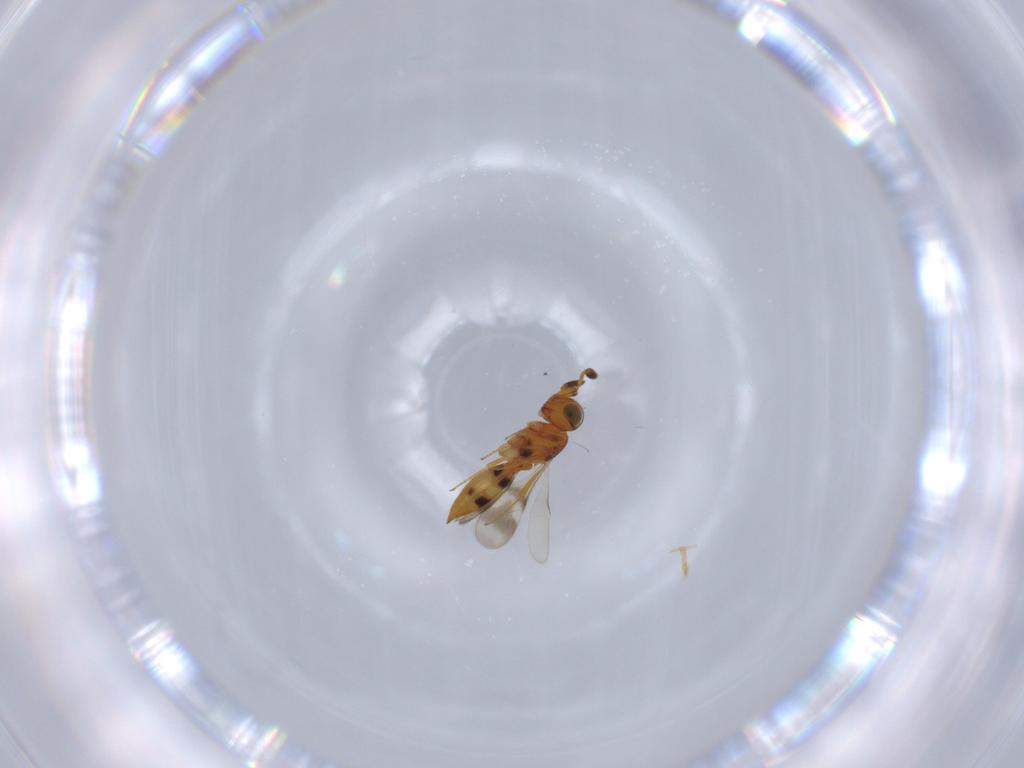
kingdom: Animalia
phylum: Arthropoda
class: Insecta
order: Hymenoptera
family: Scelionidae
